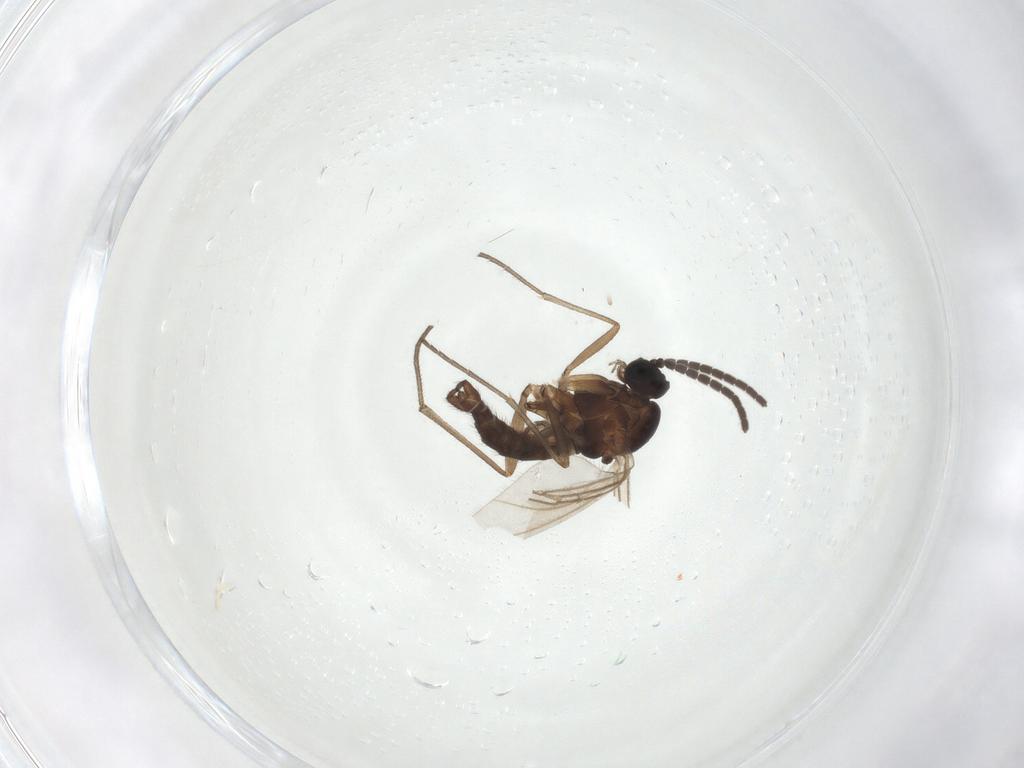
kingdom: Animalia
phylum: Arthropoda
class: Insecta
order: Diptera
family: Sciaridae
